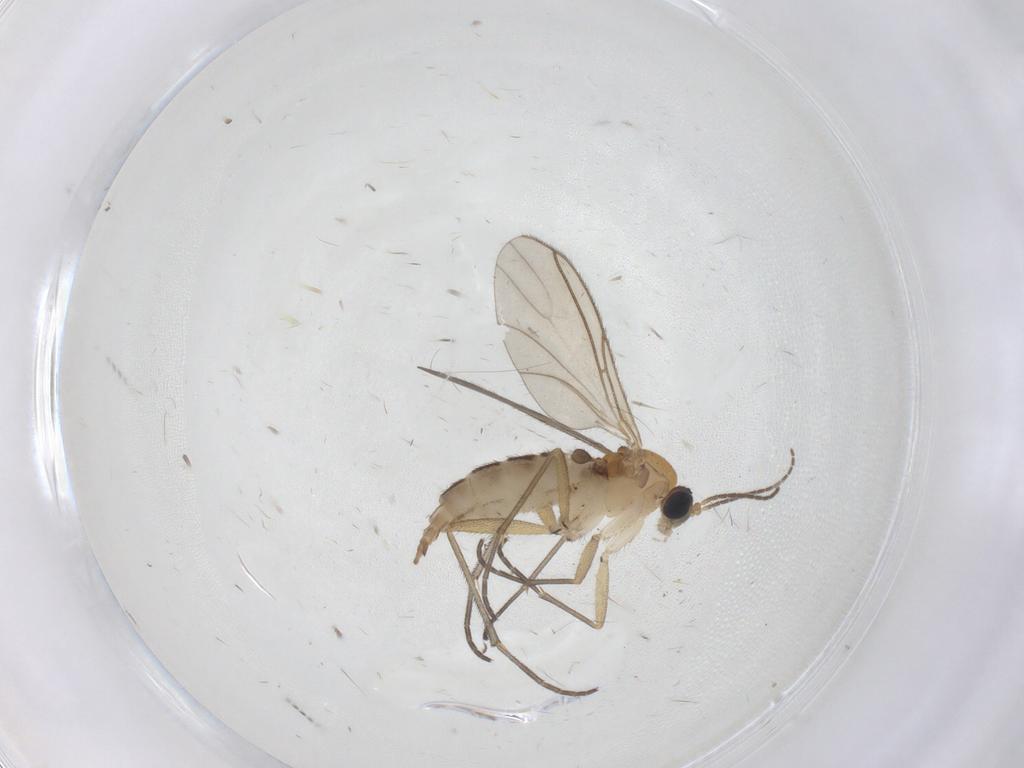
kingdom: Animalia
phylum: Arthropoda
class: Insecta
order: Diptera
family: Sciaridae
